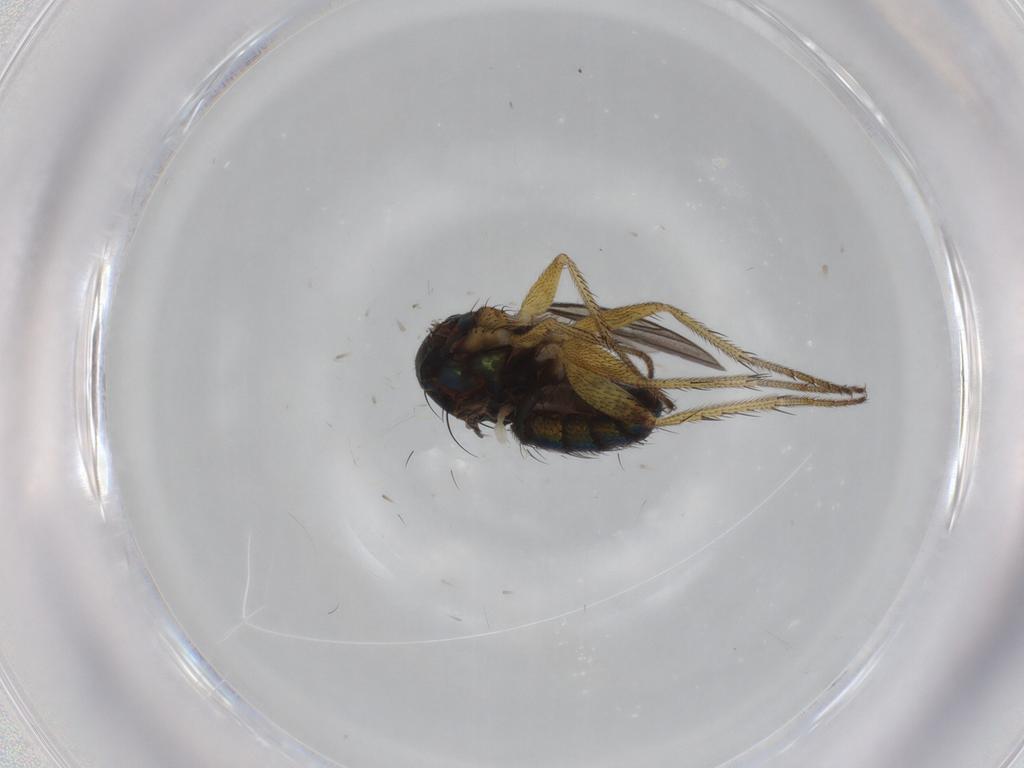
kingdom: Animalia
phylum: Arthropoda
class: Insecta
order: Diptera
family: Dolichopodidae
